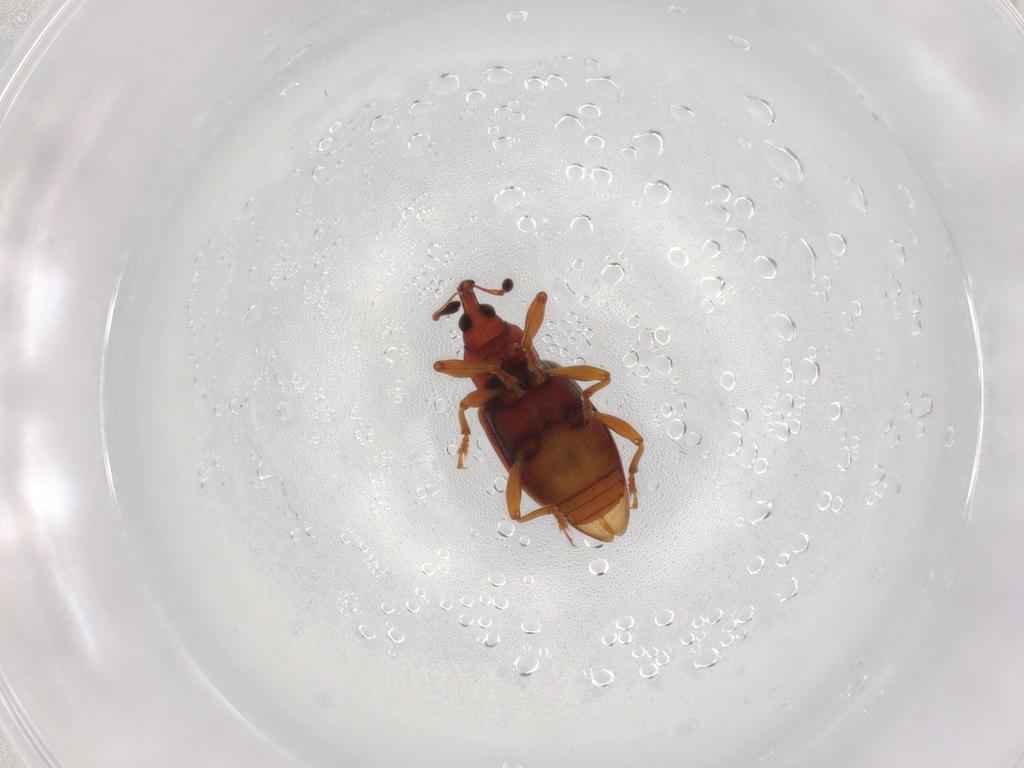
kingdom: Animalia
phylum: Arthropoda
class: Insecta
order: Coleoptera
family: Curculionidae
